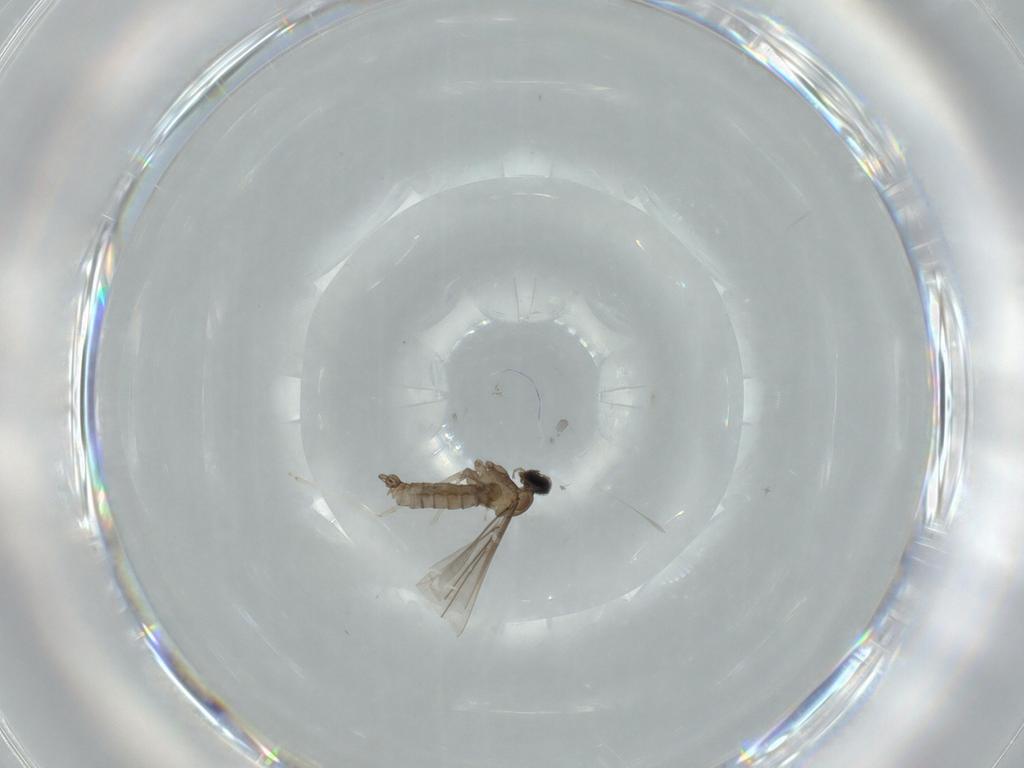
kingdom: Animalia
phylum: Arthropoda
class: Insecta
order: Diptera
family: Cecidomyiidae
